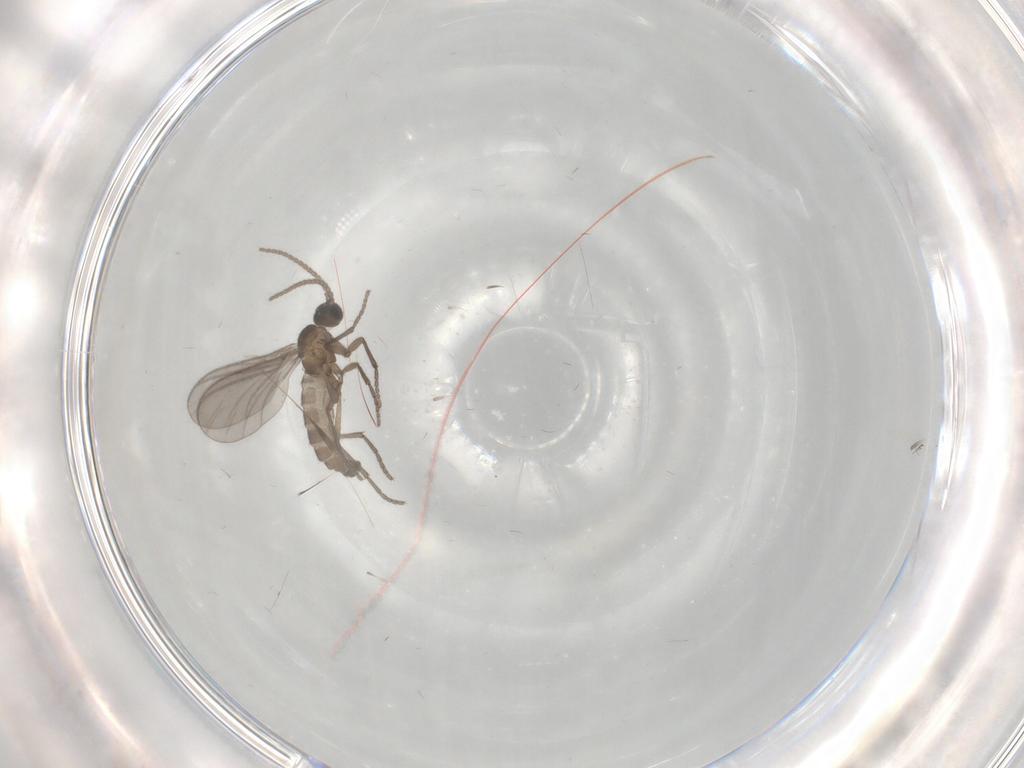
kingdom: Animalia
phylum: Arthropoda
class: Insecta
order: Diptera
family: Sciaridae
